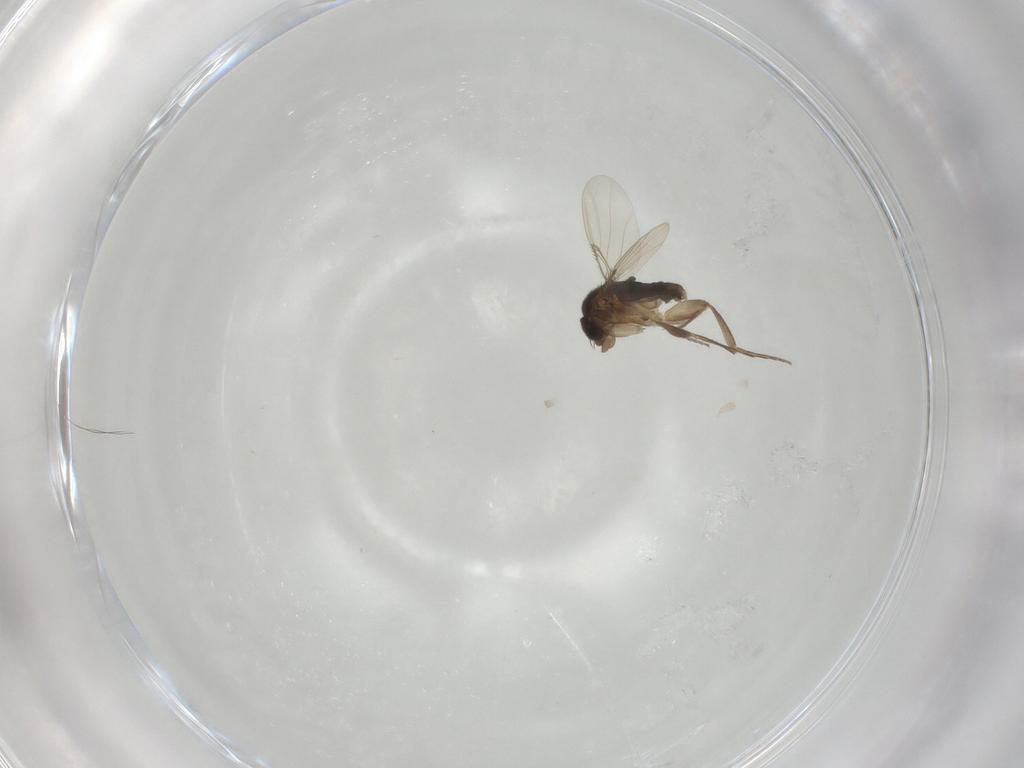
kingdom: Animalia
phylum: Arthropoda
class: Insecta
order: Diptera
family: Phoridae
